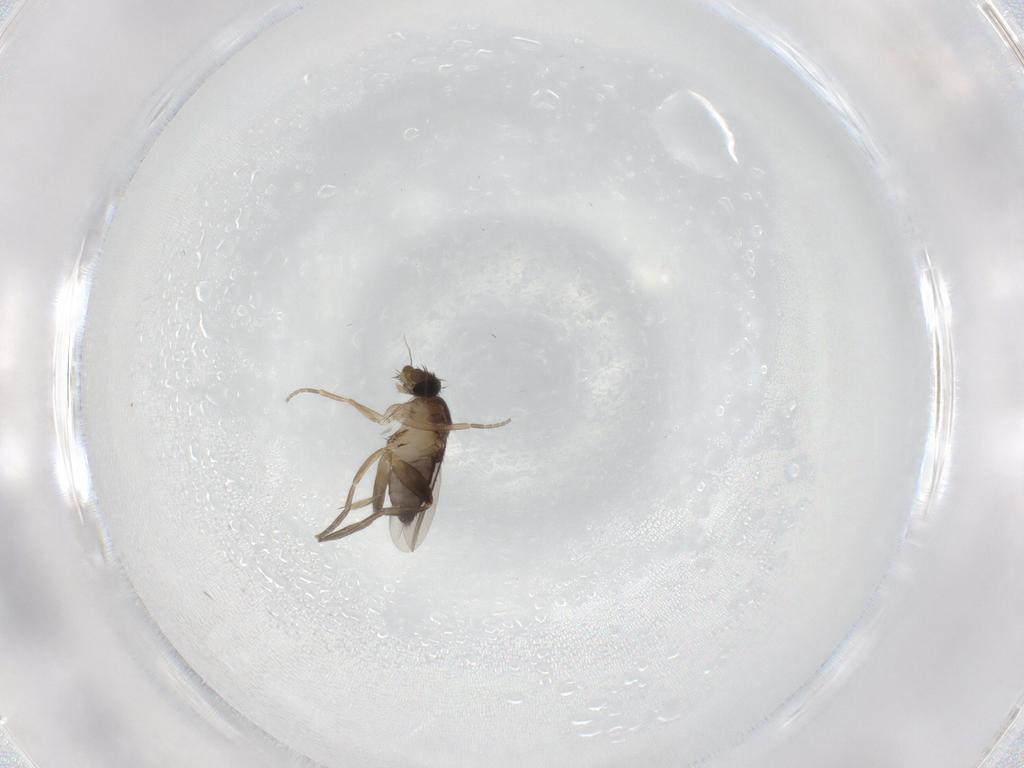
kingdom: Animalia
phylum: Arthropoda
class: Insecta
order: Diptera
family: Phoridae
